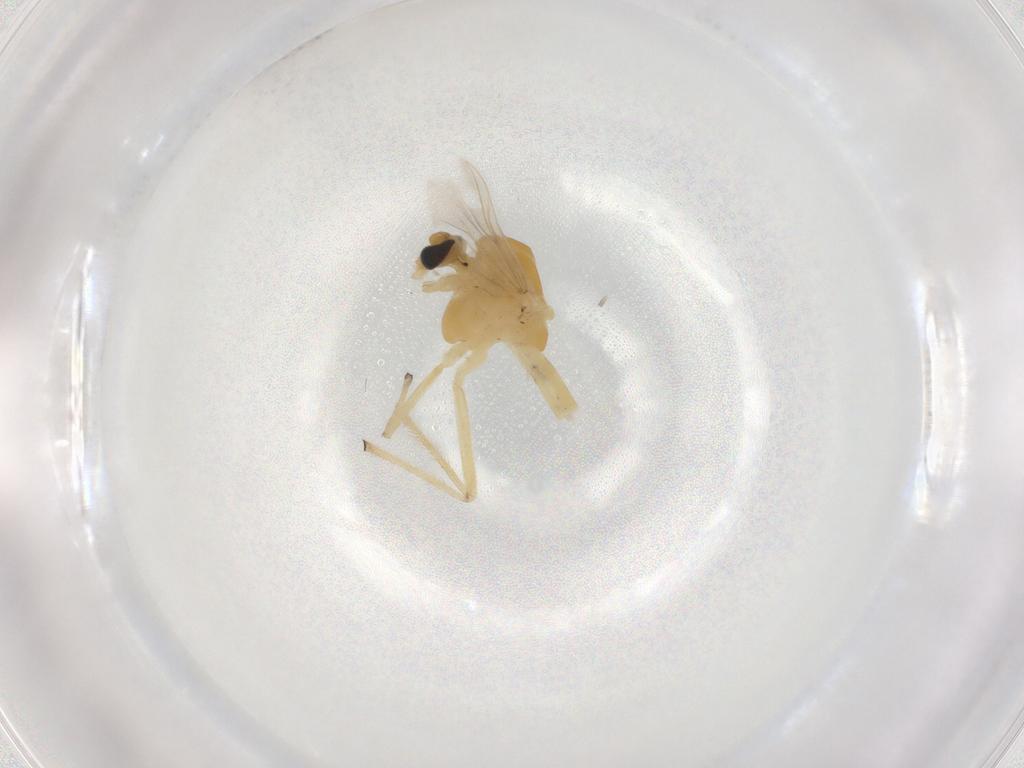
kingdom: Animalia
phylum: Arthropoda
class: Insecta
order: Diptera
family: Chironomidae
